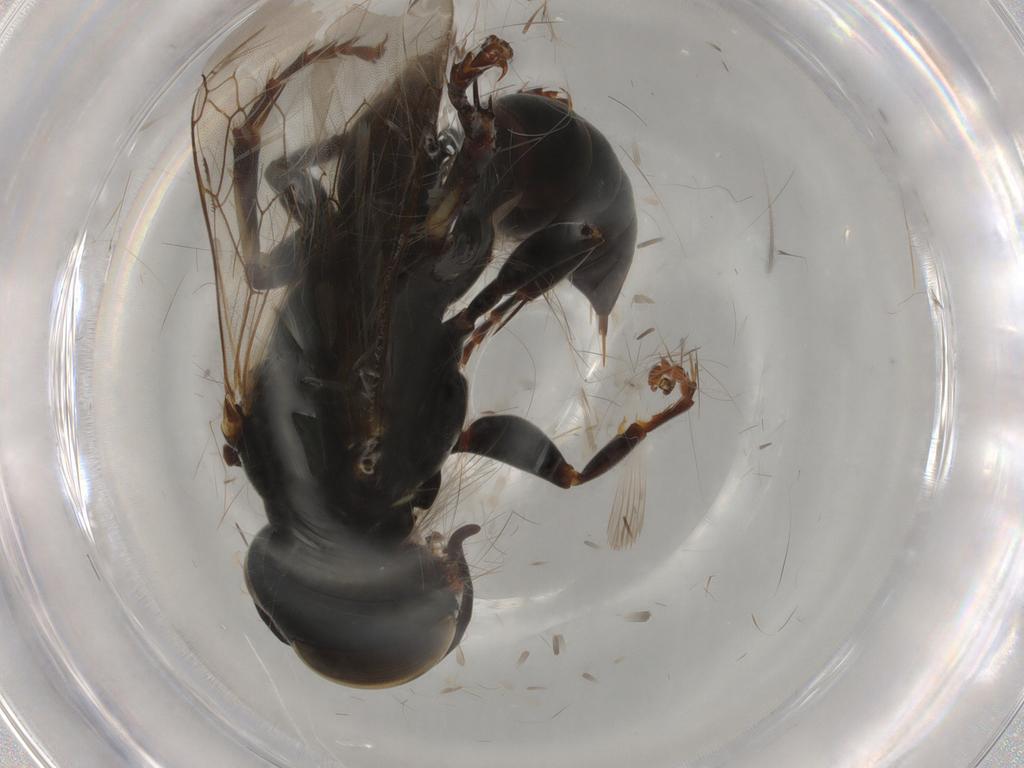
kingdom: Animalia
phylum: Arthropoda
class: Insecta
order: Hymenoptera
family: Crabronidae
